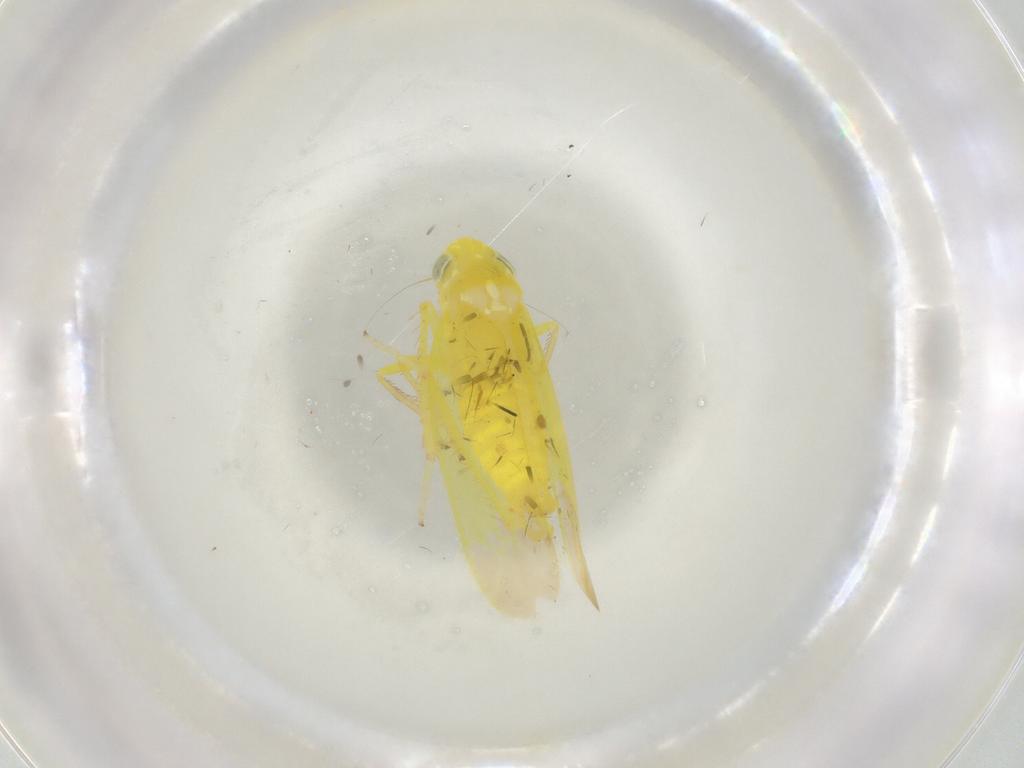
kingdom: Animalia
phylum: Arthropoda
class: Insecta
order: Hemiptera
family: Cicadellidae
